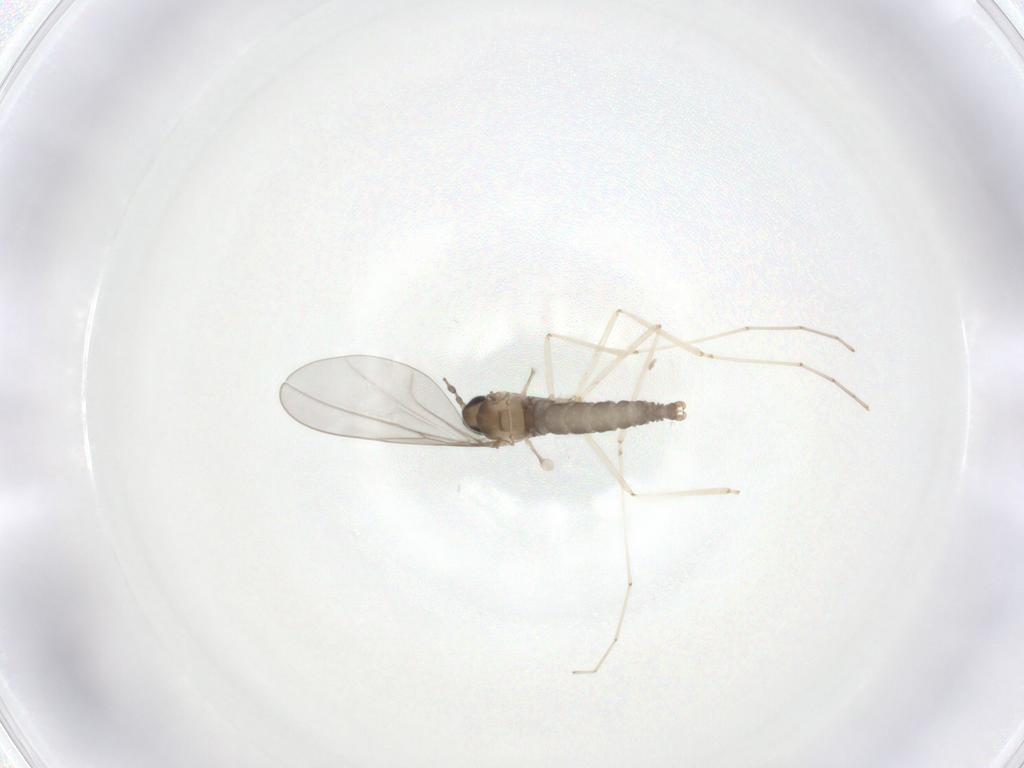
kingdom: Animalia
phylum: Arthropoda
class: Insecta
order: Diptera
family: Cecidomyiidae
